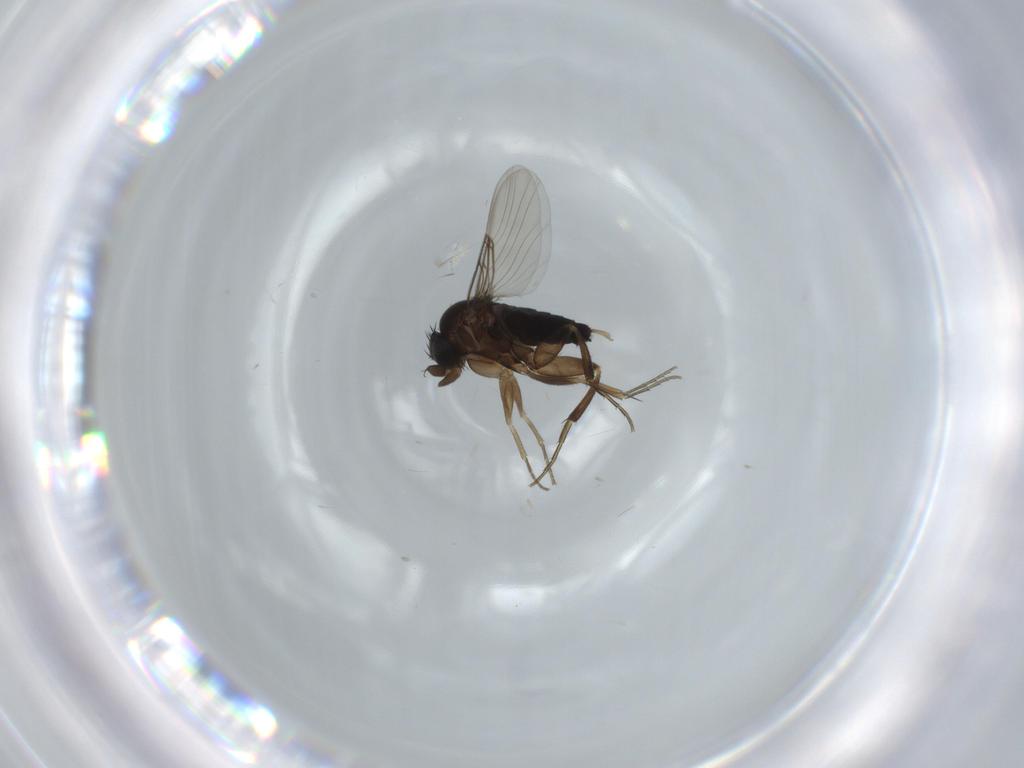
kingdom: Animalia
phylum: Arthropoda
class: Insecta
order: Diptera
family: Phoridae
